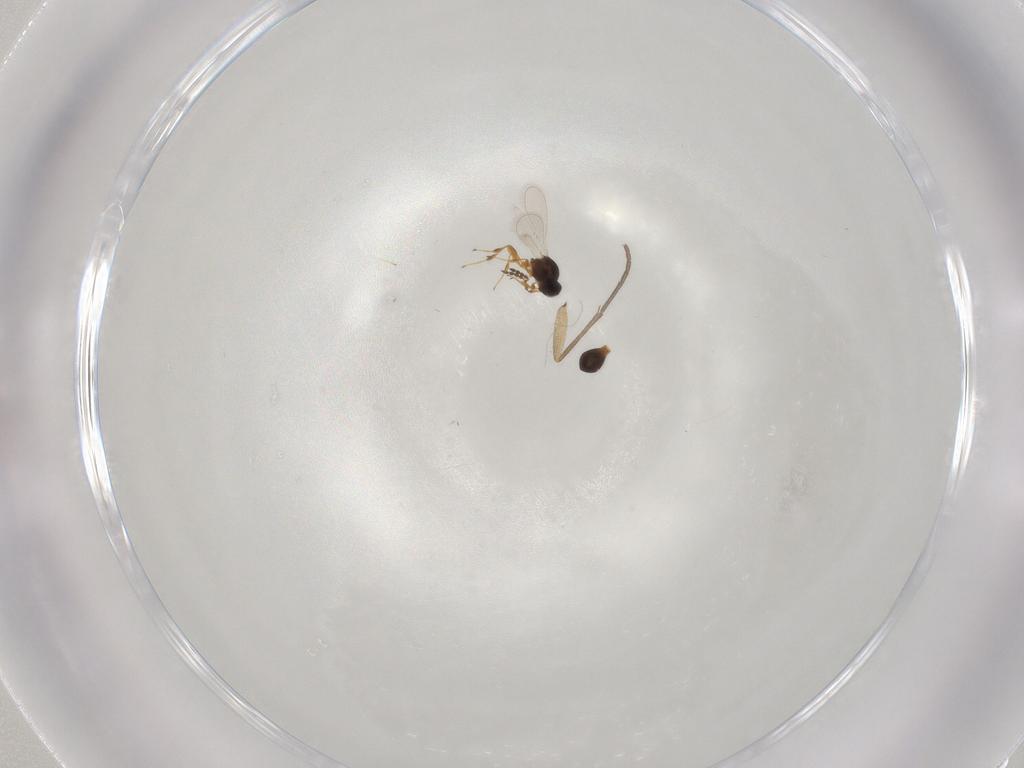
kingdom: Animalia
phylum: Arthropoda
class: Insecta
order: Hymenoptera
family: Platygastridae
